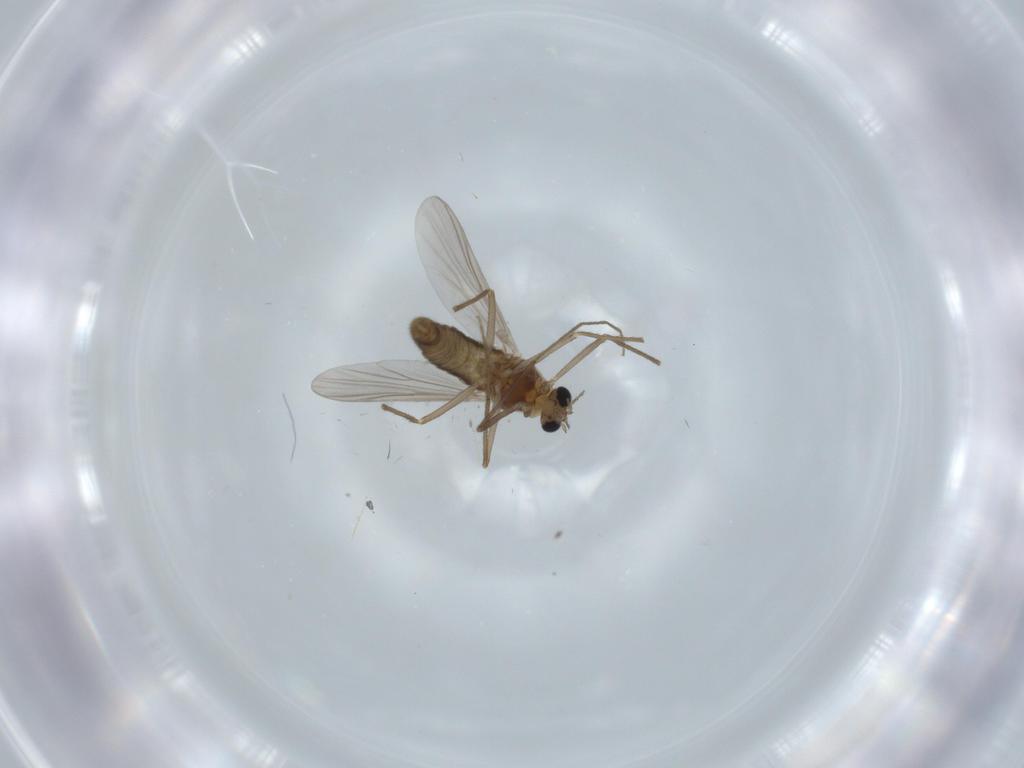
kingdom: Animalia
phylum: Arthropoda
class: Insecta
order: Diptera
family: Chironomidae
